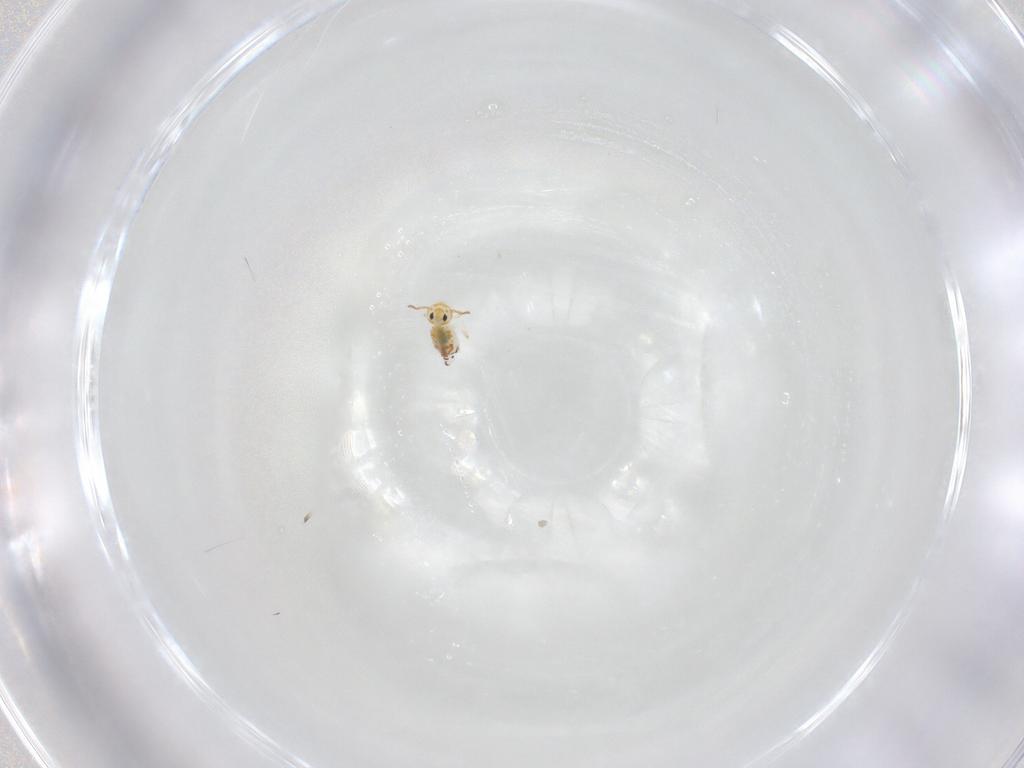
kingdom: Animalia
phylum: Arthropoda
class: Collembola
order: Symphypleona
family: Bourletiellidae
